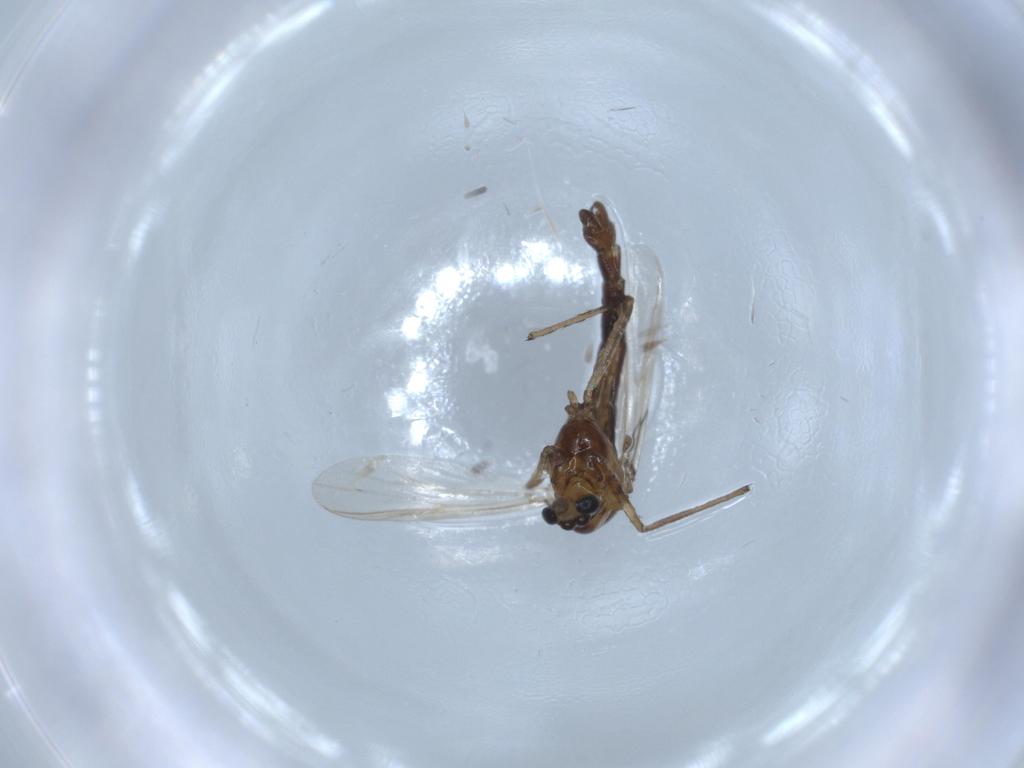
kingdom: Animalia
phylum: Arthropoda
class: Insecta
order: Diptera
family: Chironomidae
